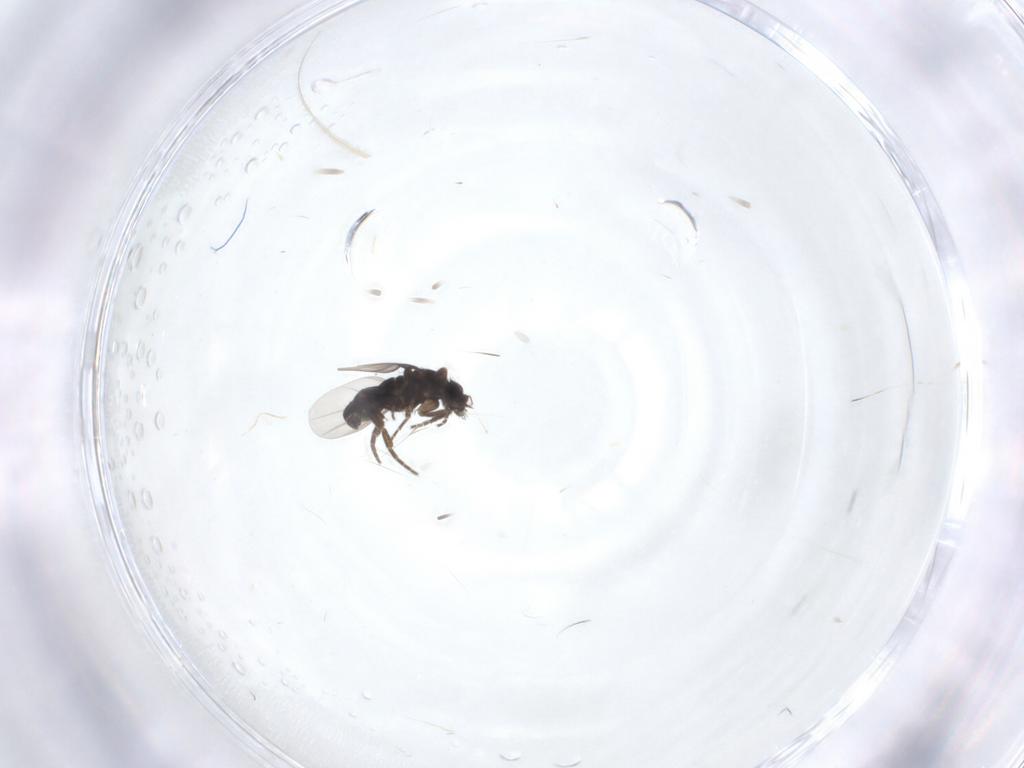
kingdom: Animalia
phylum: Arthropoda
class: Insecta
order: Diptera
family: Phoridae
